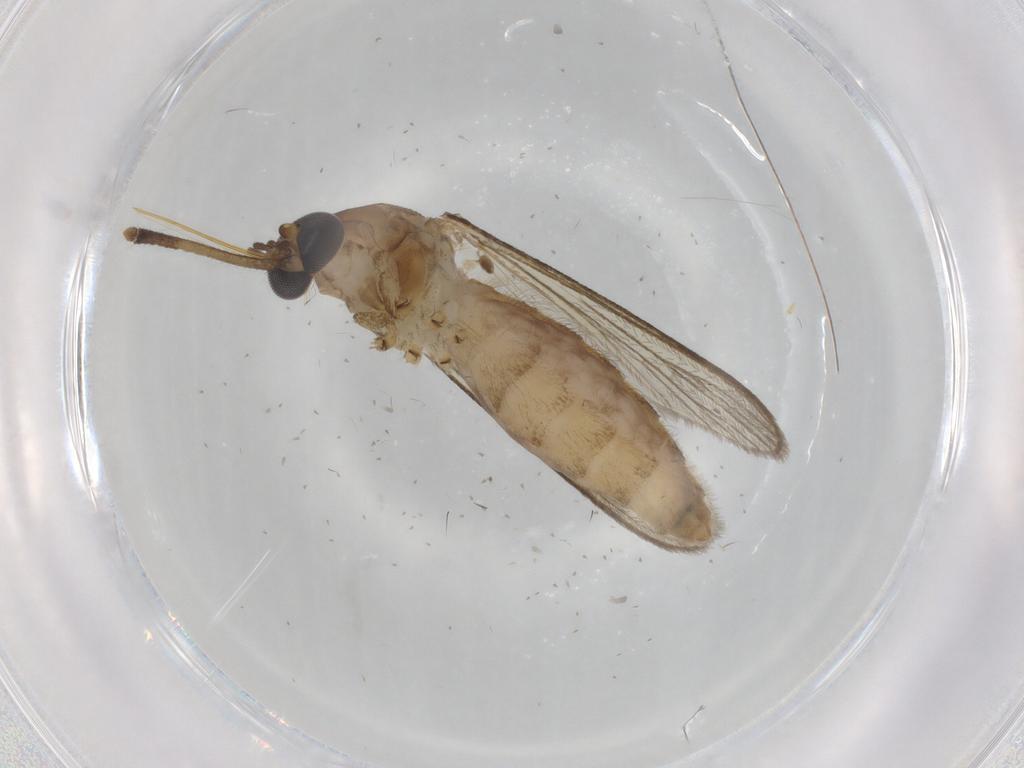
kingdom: Animalia
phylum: Arthropoda
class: Insecta
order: Diptera
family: Culicidae
